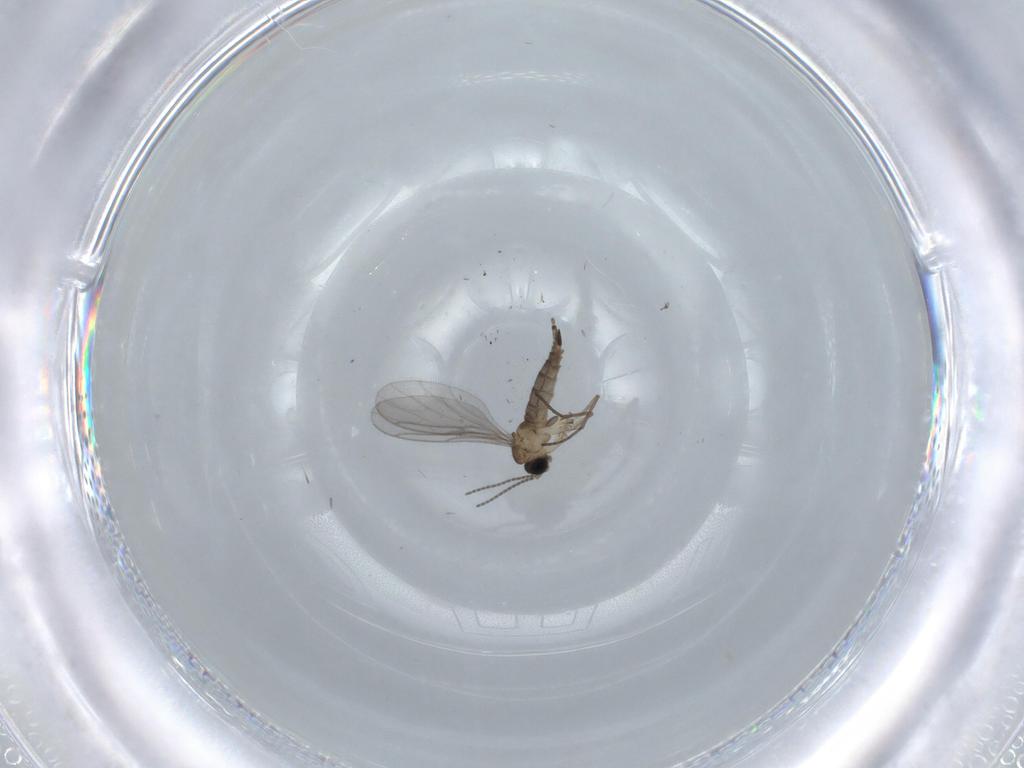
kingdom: Animalia
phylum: Arthropoda
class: Insecta
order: Diptera
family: Sciaridae
